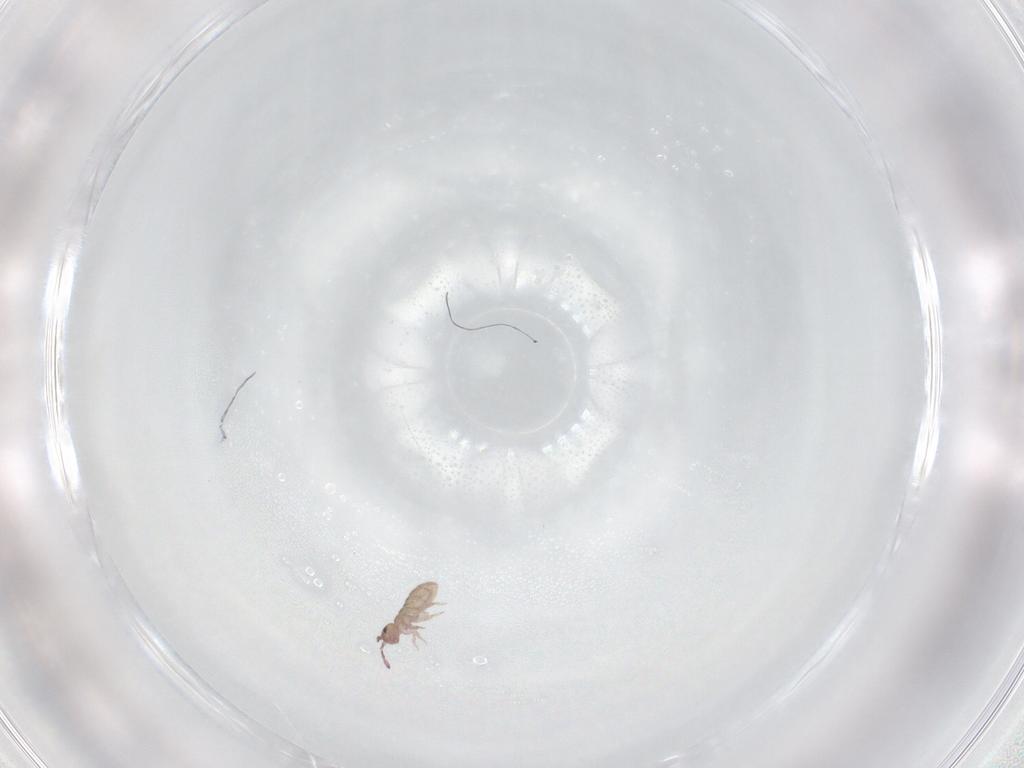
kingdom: Animalia
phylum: Arthropoda
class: Collembola
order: Entomobryomorpha
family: Isotomidae
